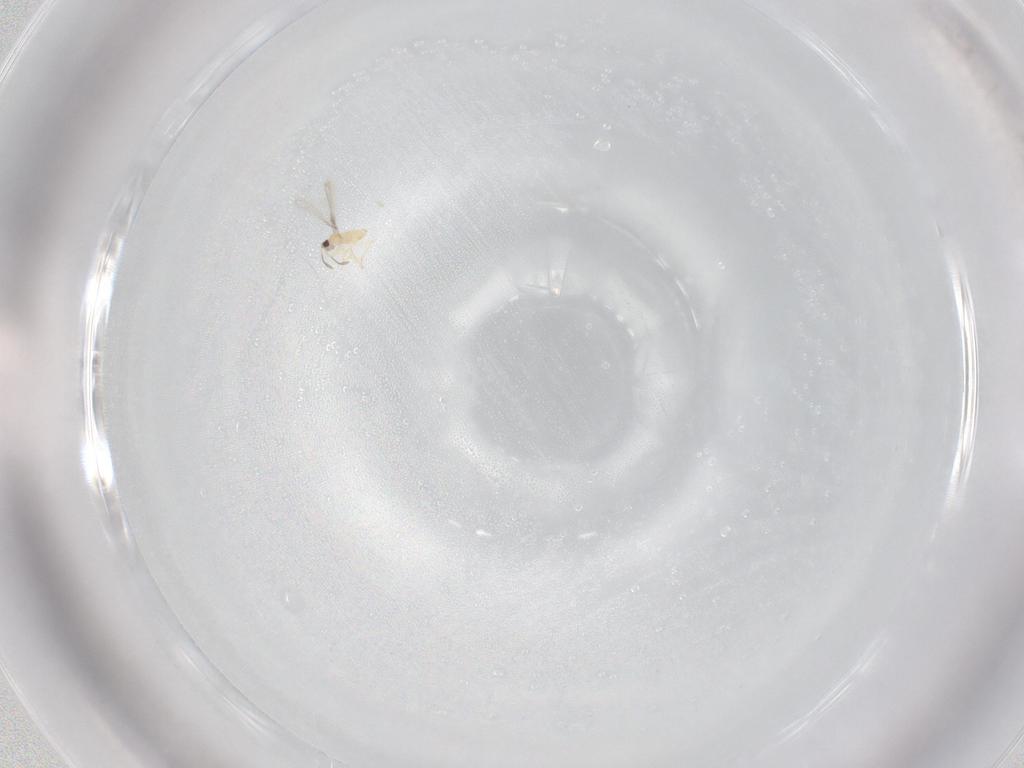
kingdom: Animalia
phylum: Arthropoda
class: Insecta
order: Hymenoptera
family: Mymaridae
